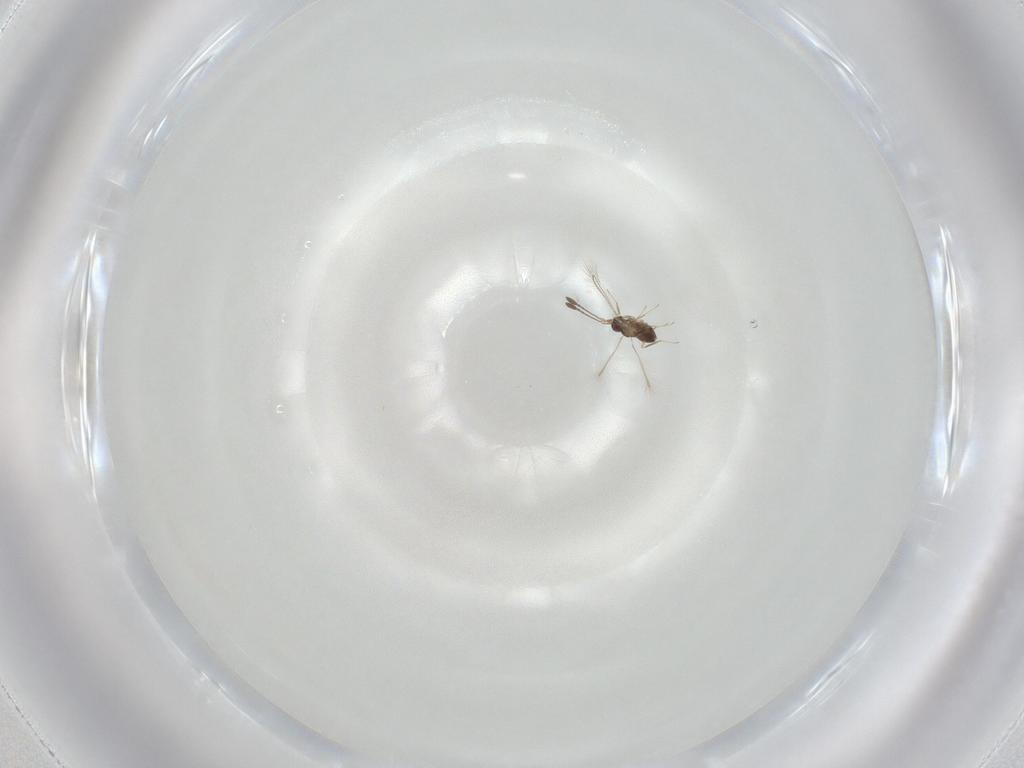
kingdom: Animalia
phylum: Arthropoda
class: Insecta
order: Hymenoptera
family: Mymaridae
